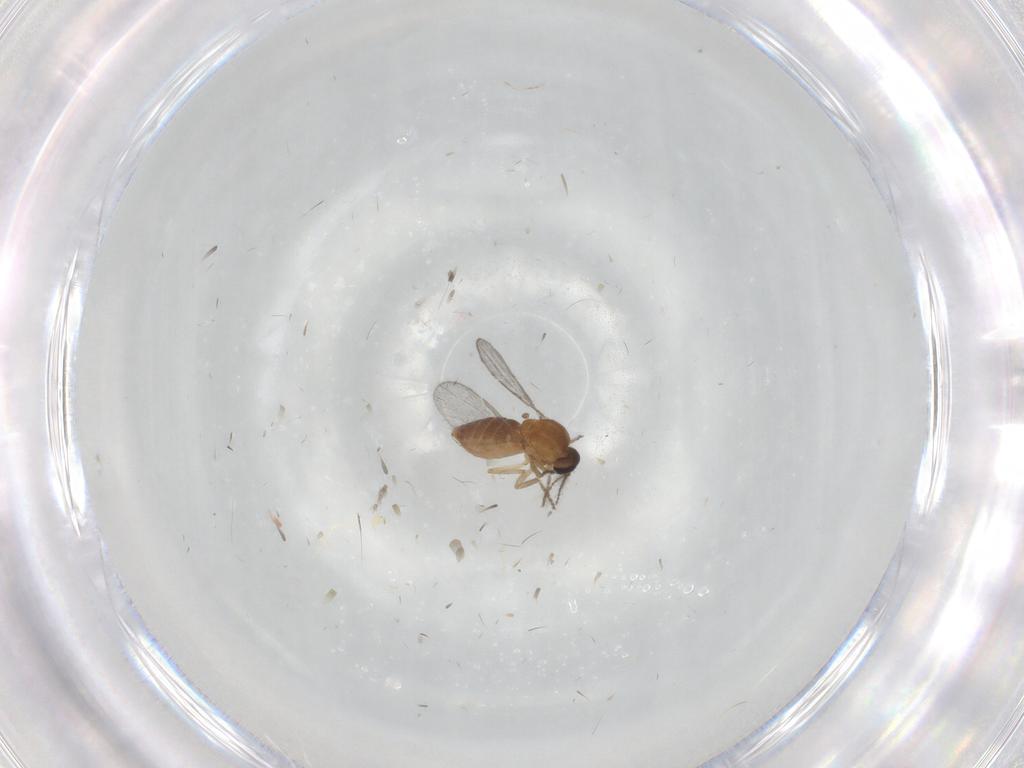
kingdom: Animalia
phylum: Arthropoda
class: Insecta
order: Diptera
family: Ceratopogonidae
